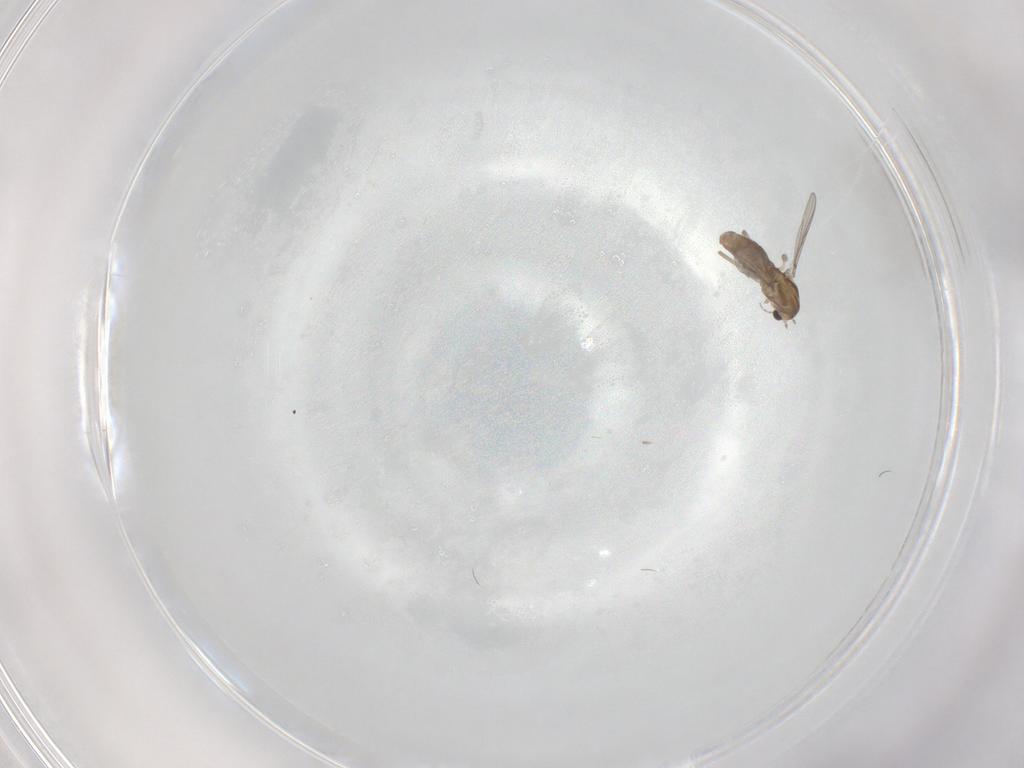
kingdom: Animalia
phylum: Arthropoda
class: Insecta
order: Diptera
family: Chironomidae
